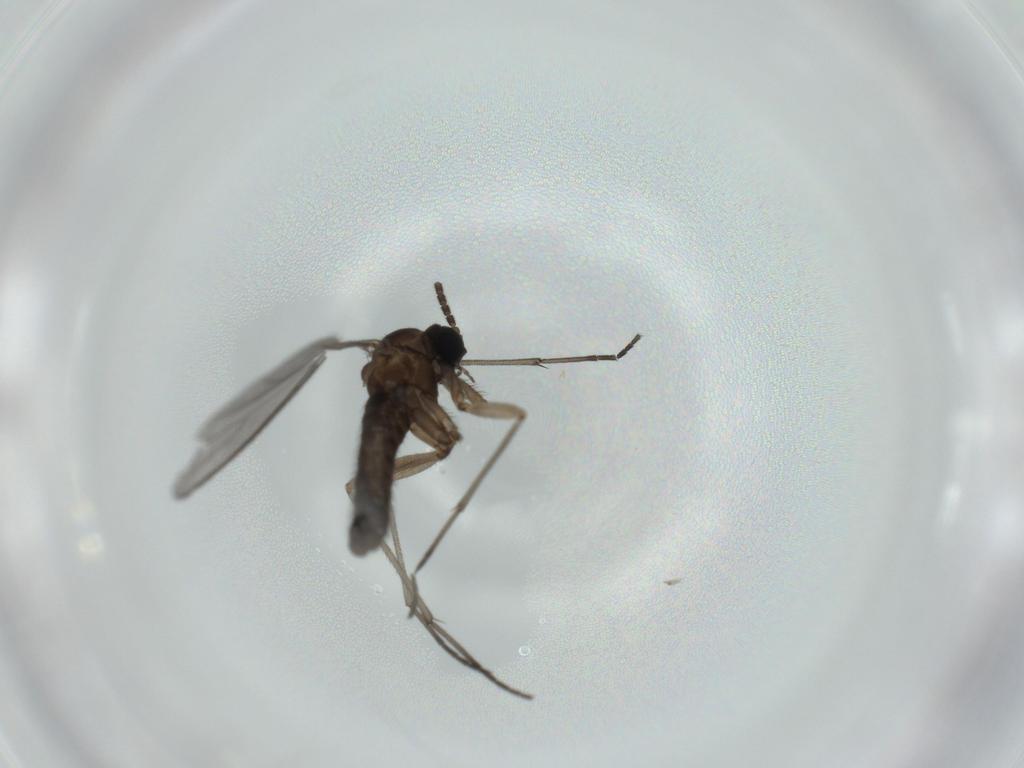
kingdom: Animalia
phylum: Arthropoda
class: Insecta
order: Diptera
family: Sciaridae
